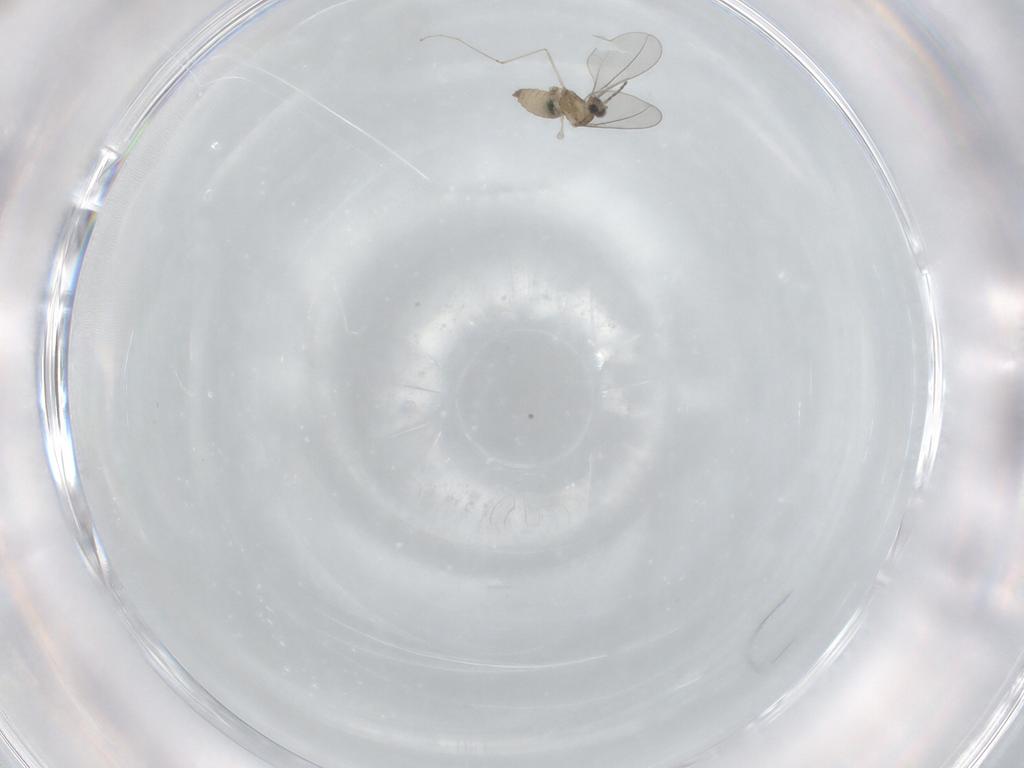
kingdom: Animalia
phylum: Arthropoda
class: Insecta
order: Diptera
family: Cecidomyiidae
